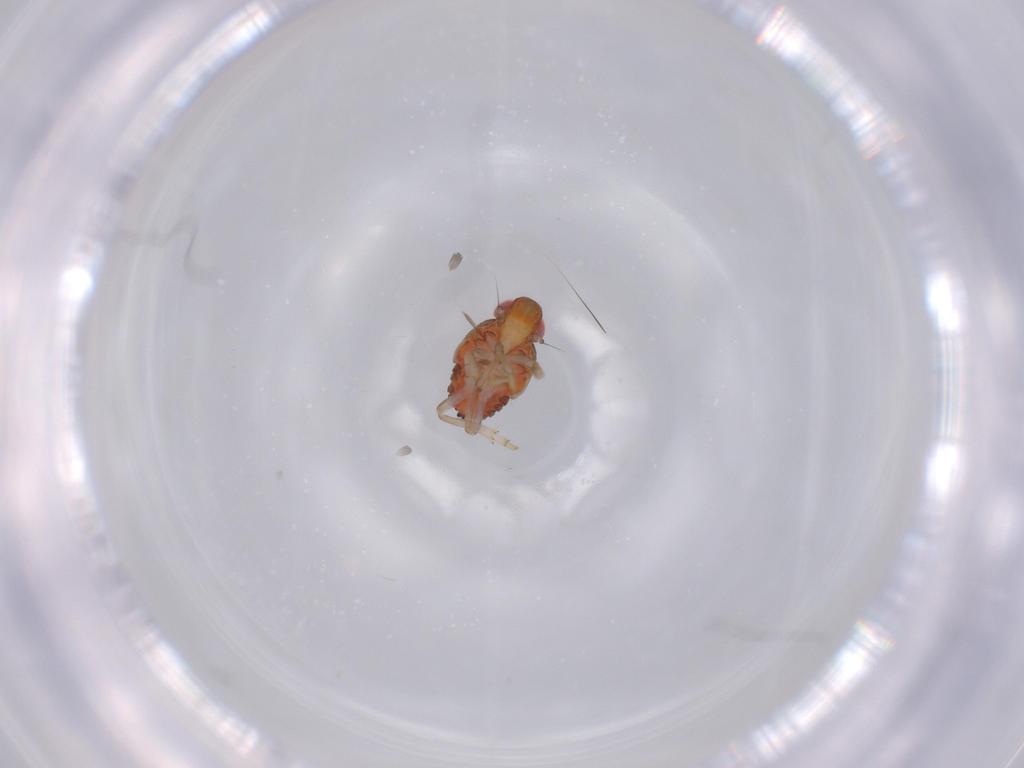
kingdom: Animalia
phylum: Arthropoda
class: Insecta
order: Hemiptera
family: Issidae
